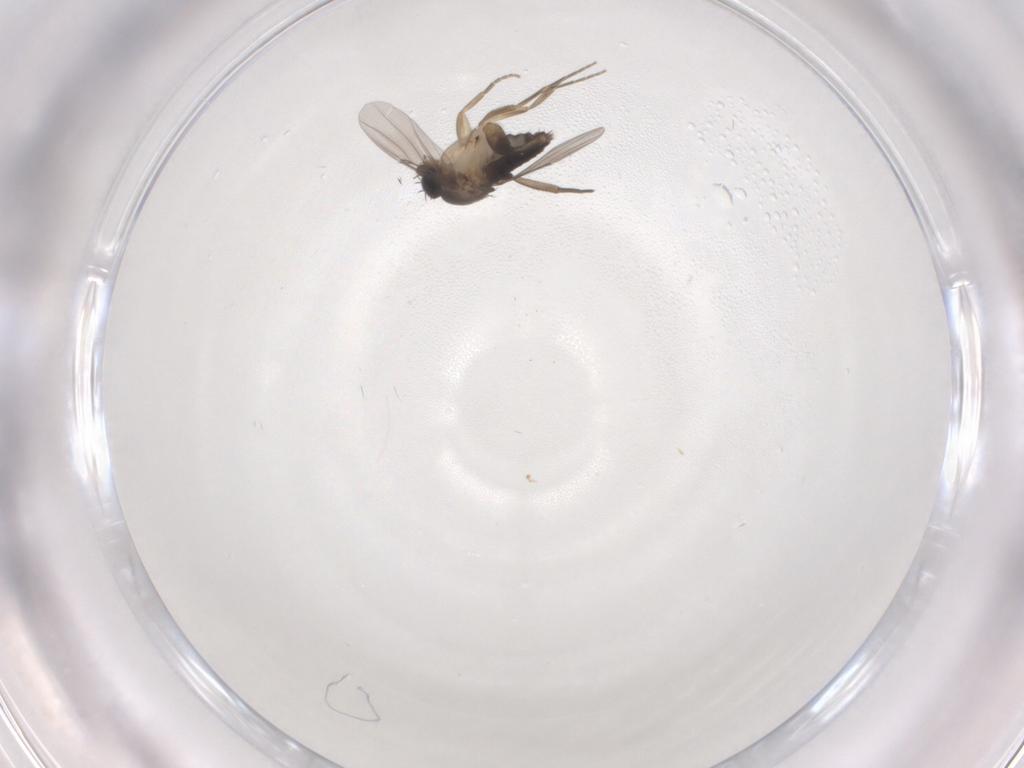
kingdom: Animalia
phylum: Arthropoda
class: Insecta
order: Diptera
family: Phoridae
